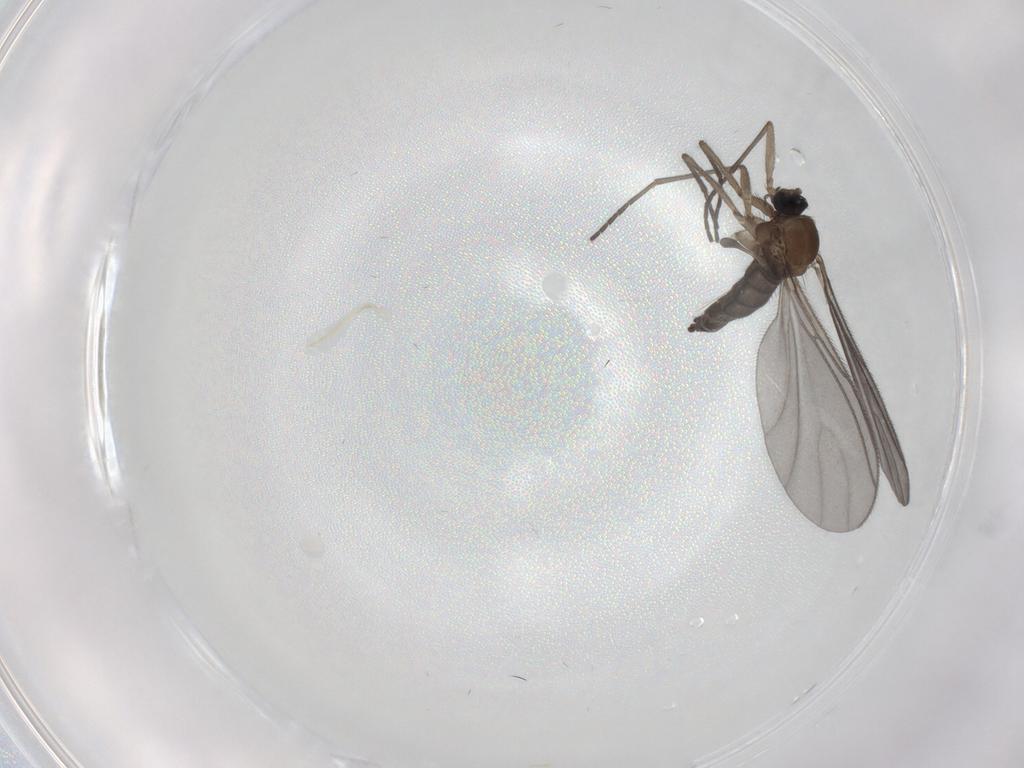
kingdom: Animalia
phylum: Arthropoda
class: Insecta
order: Diptera
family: Sciaridae
